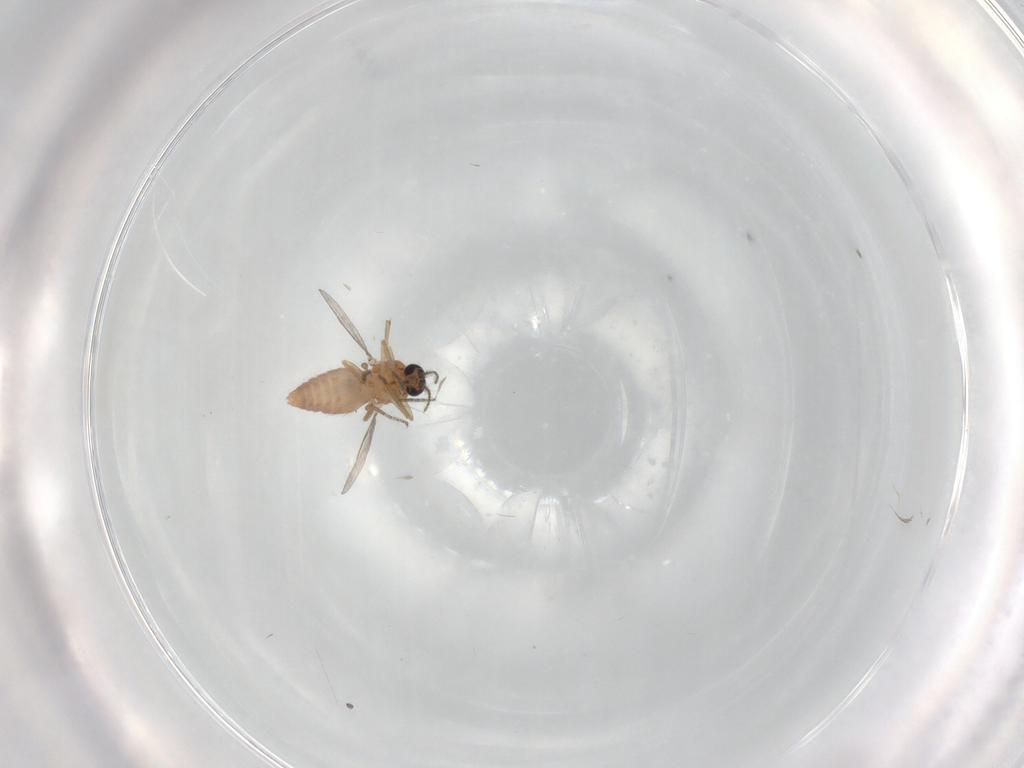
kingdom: Animalia
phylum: Arthropoda
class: Insecta
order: Diptera
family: Ceratopogonidae
